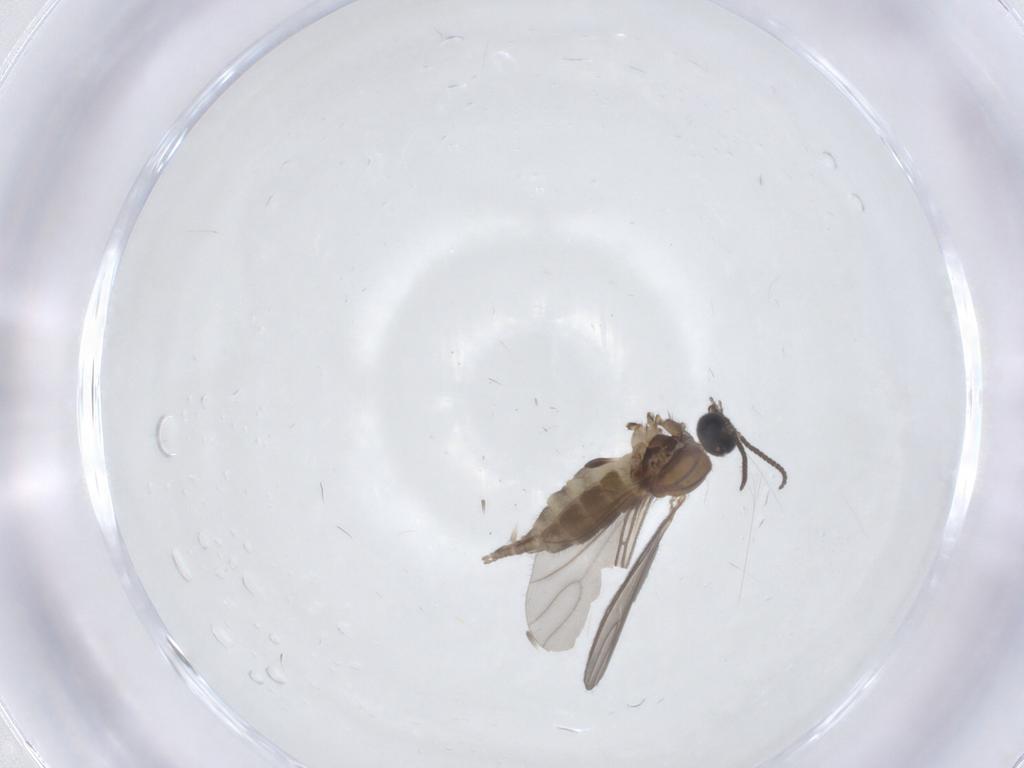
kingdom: Animalia
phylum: Arthropoda
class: Insecta
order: Diptera
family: Sciaridae
